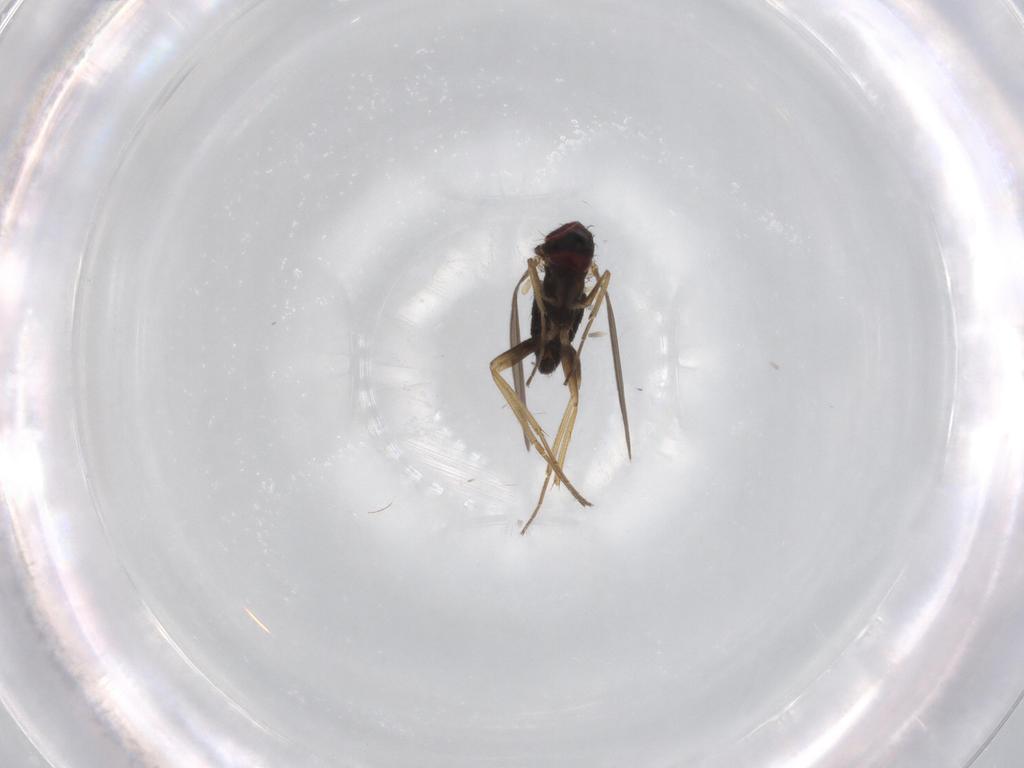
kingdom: Animalia
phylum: Arthropoda
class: Insecta
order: Diptera
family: Dolichopodidae
